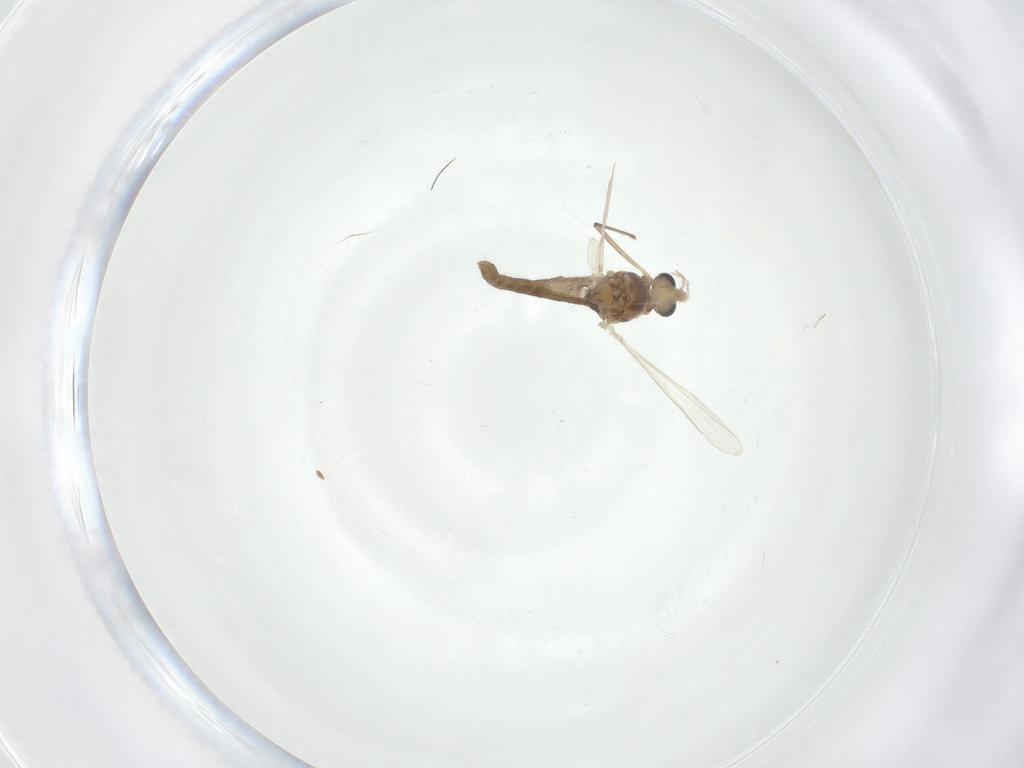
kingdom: Animalia
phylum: Arthropoda
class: Insecta
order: Diptera
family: Chironomidae
